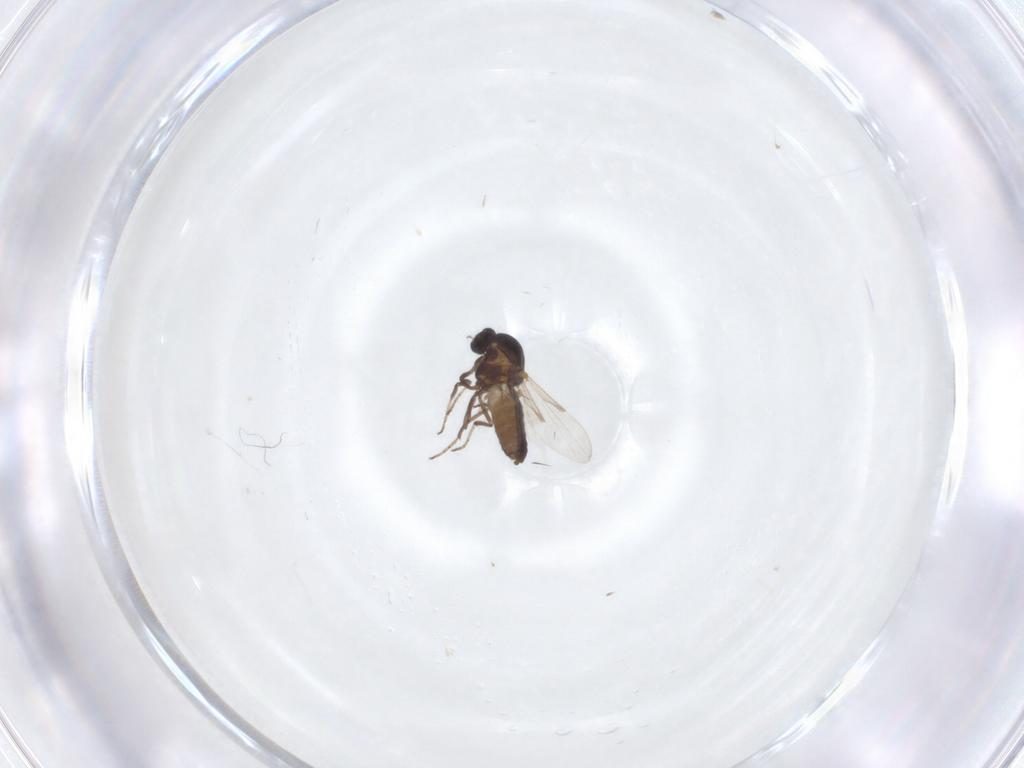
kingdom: Animalia
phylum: Arthropoda
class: Insecta
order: Diptera
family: Ceratopogonidae
